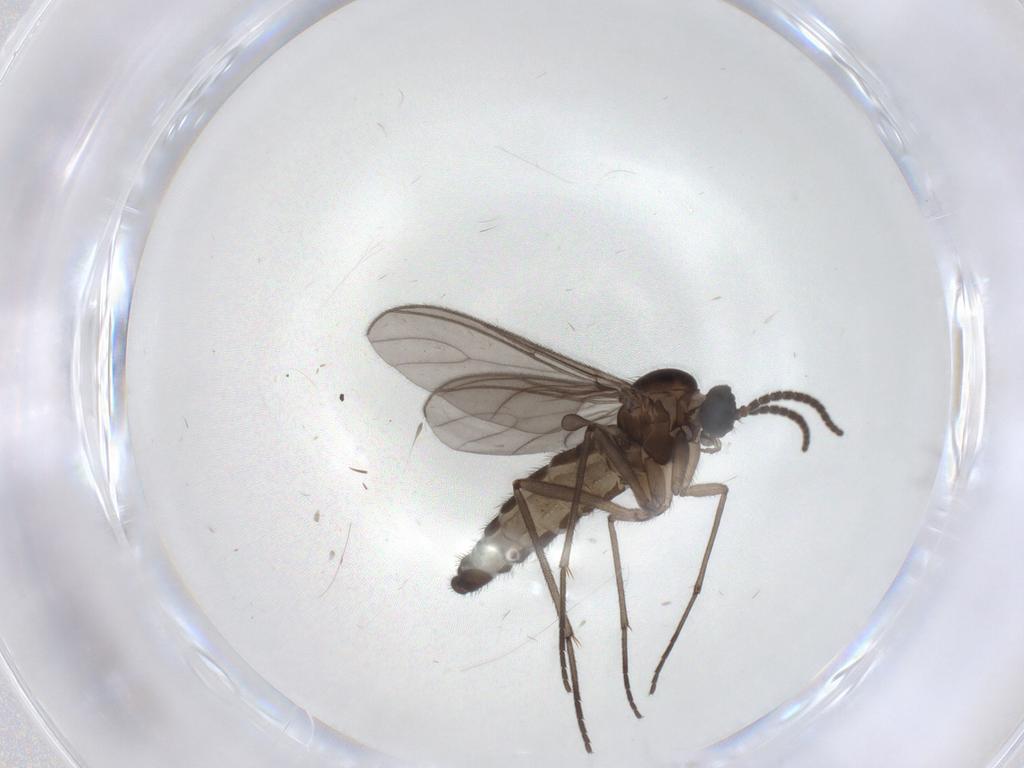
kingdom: Animalia
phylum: Arthropoda
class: Insecta
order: Diptera
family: Sciaridae
